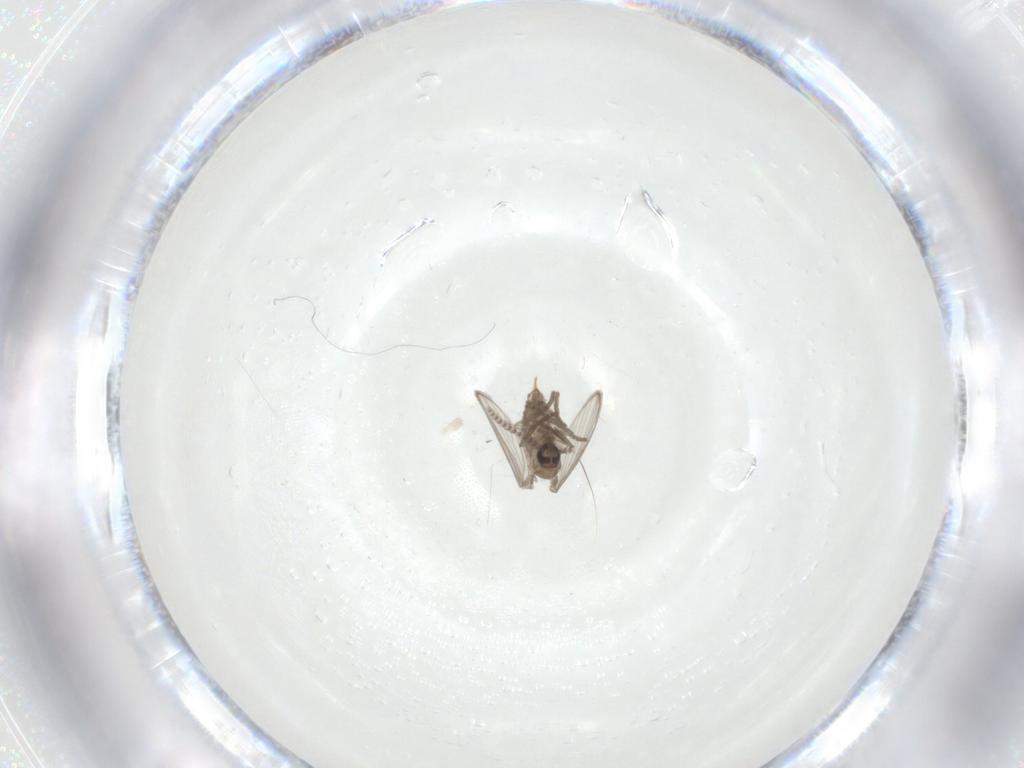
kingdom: Animalia
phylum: Arthropoda
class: Insecta
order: Diptera
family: Psychodidae
